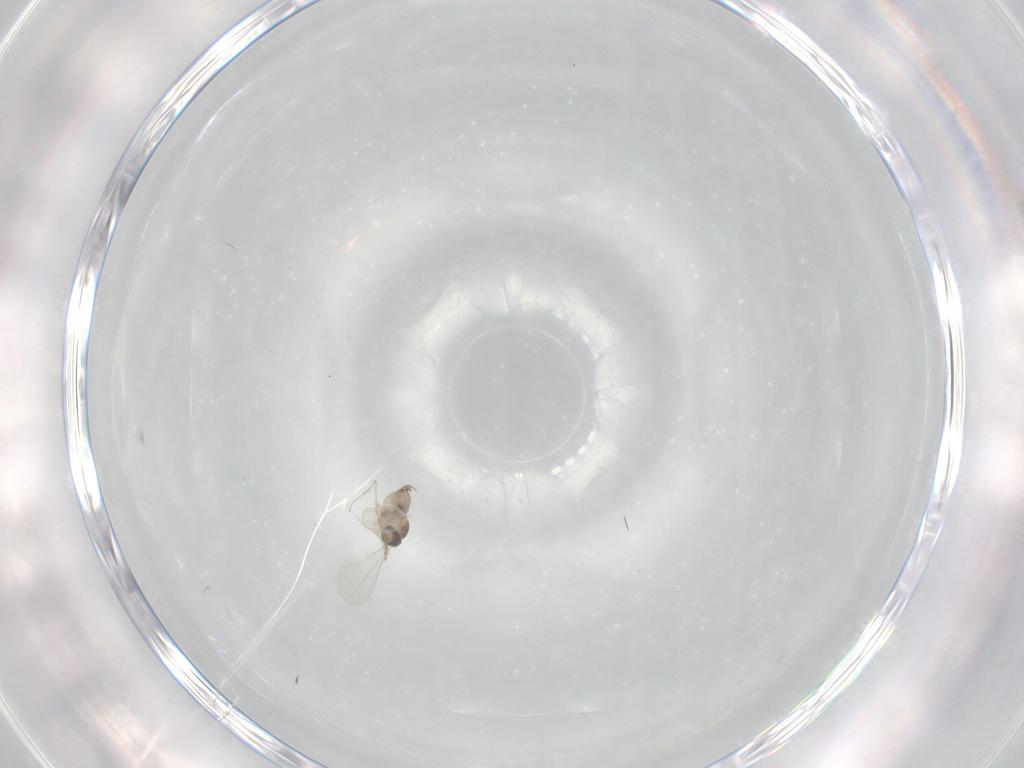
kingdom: Animalia
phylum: Arthropoda
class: Insecta
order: Diptera
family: Cecidomyiidae
